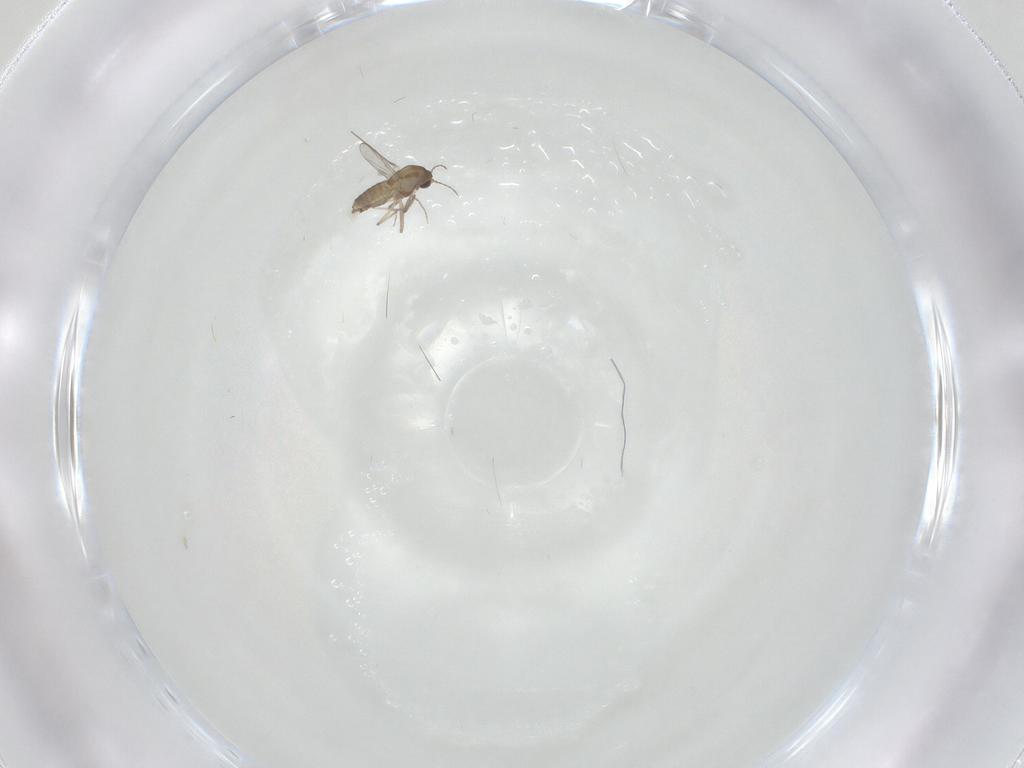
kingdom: Animalia
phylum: Arthropoda
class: Insecta
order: Diptera
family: Chironomidae
